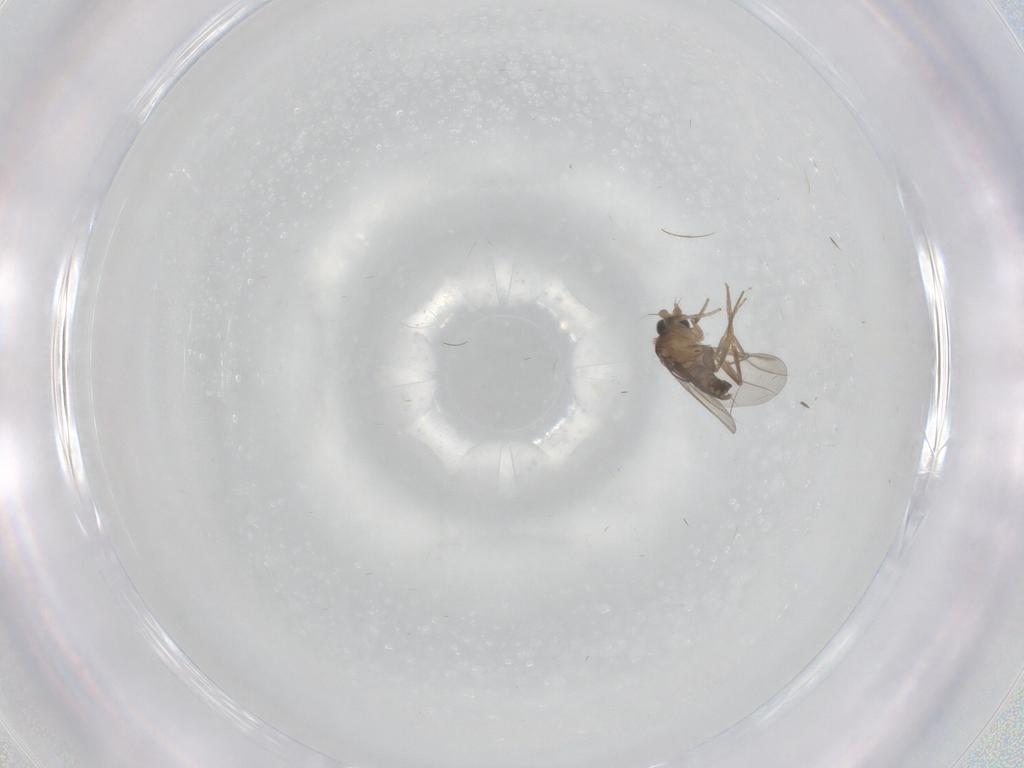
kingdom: Animalia
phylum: Arthropoda
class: Insecta
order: Diptera
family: Phoridae
